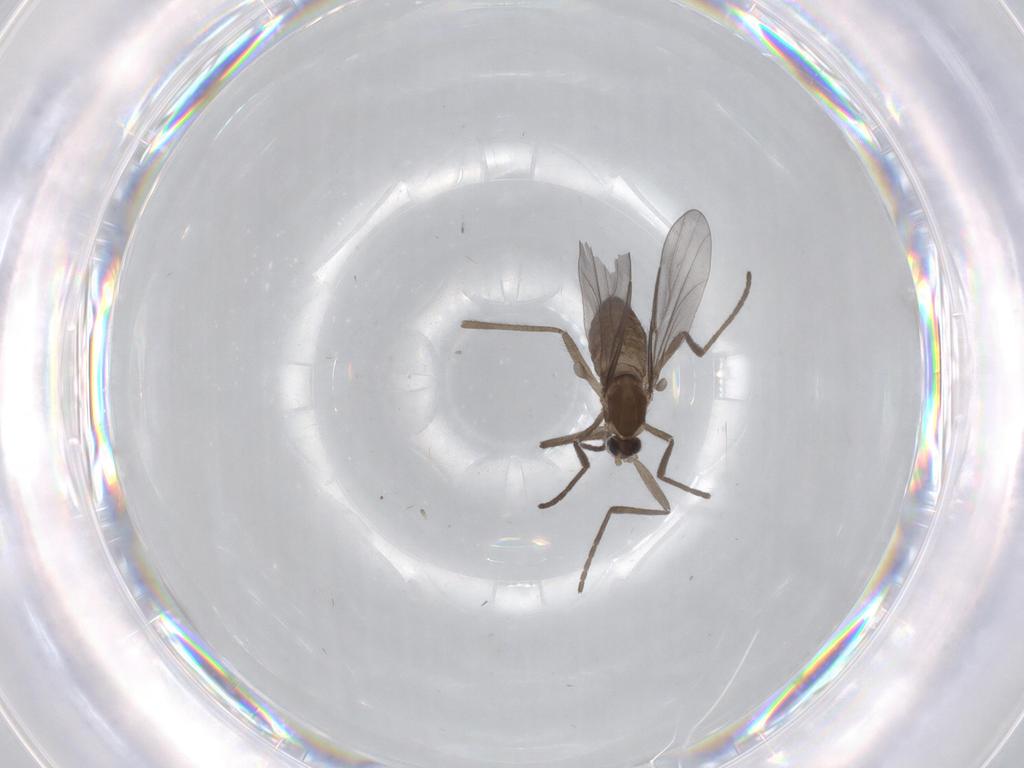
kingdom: Animalia
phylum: Arthropoda
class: Insecta
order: Diptera
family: Cecidomyiidae
